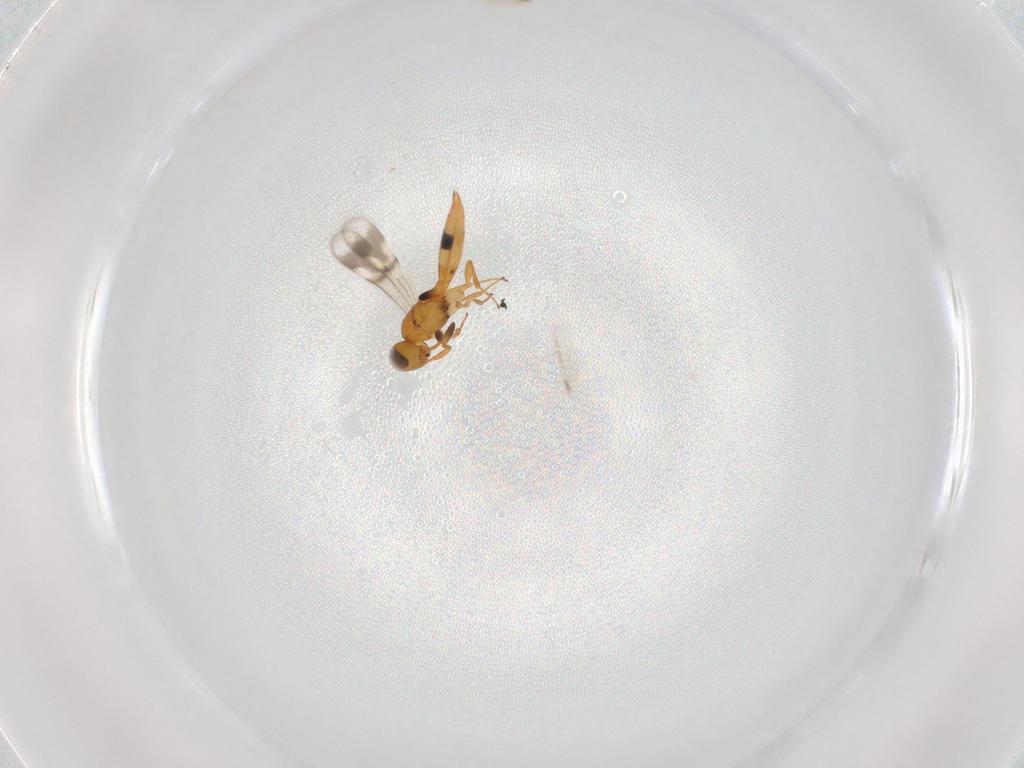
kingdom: Animalia
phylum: Arthropoda
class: Insecta
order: Hymenoptera
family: Scelionidae
